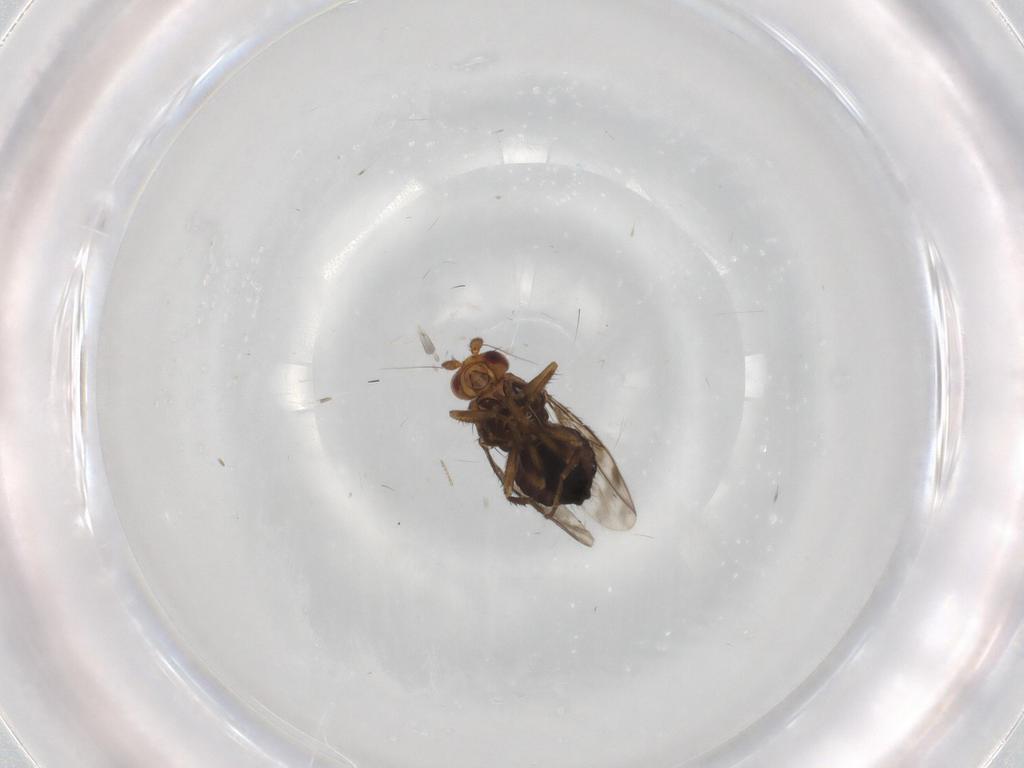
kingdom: Animalia
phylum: Arthropoda
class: Insecta
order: Diptera
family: Sphaeroceridae
